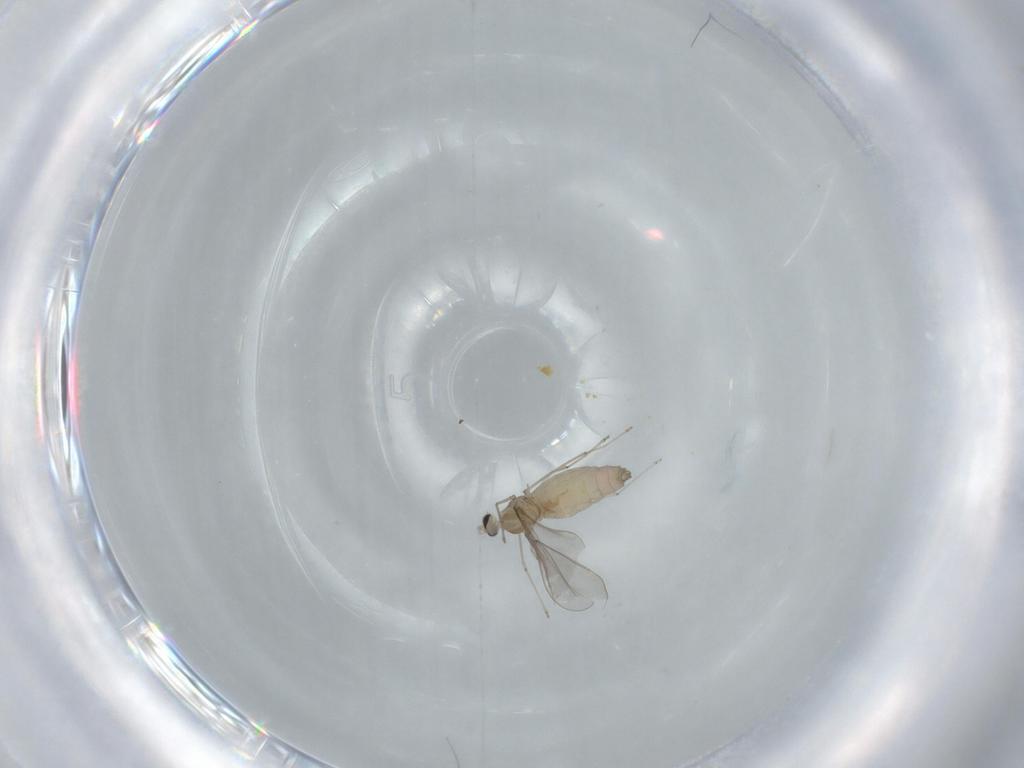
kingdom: Animalia
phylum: Arthropoda
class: Insecta
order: Diptera
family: Cecidomyiidae
